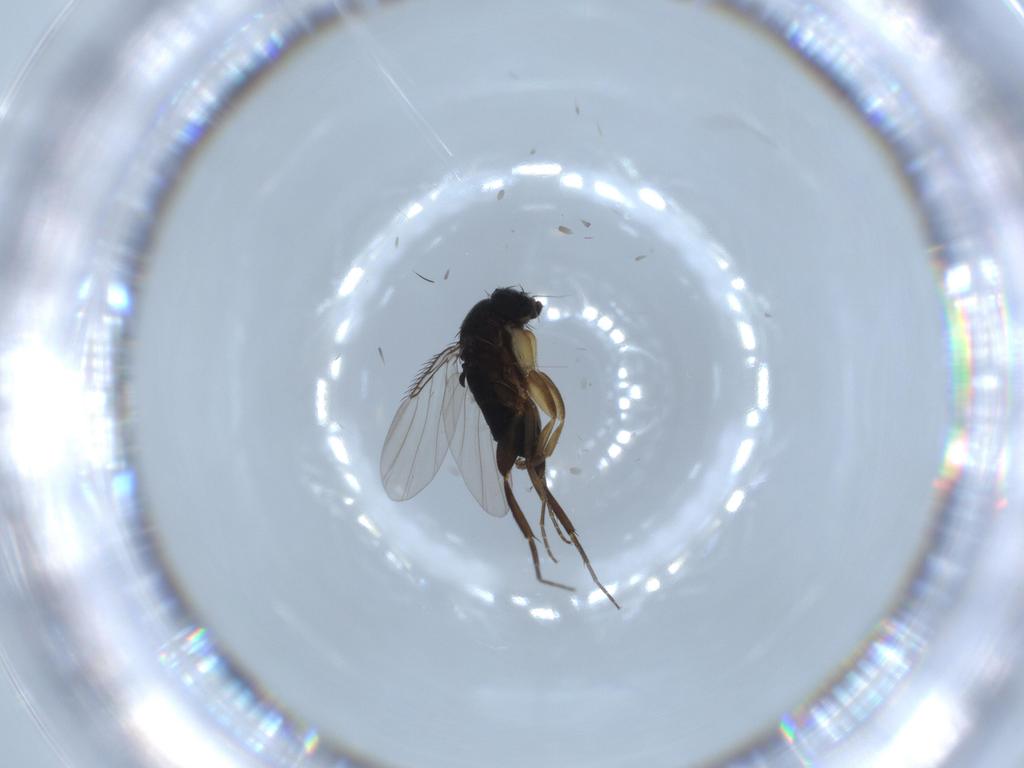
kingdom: Animalia
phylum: Arthropoda
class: Insecta
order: Diptera
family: Phoridae
